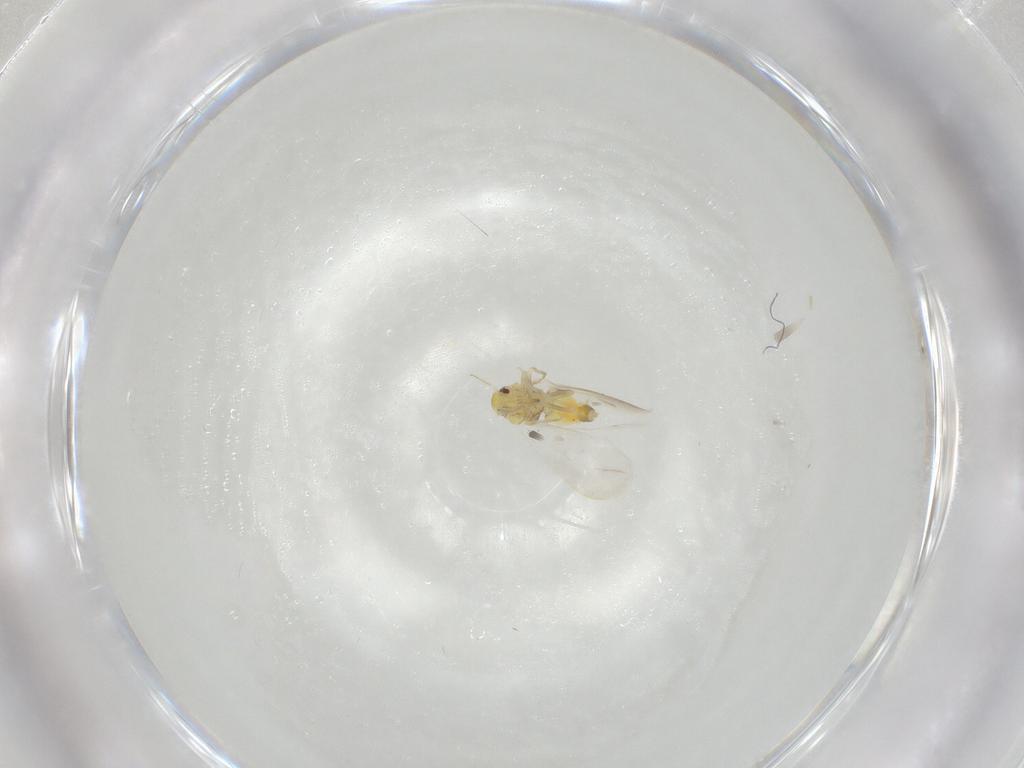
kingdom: Animalia
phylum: Arthropoda
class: Insecta
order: Hemiptera
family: Aleyrodidae
